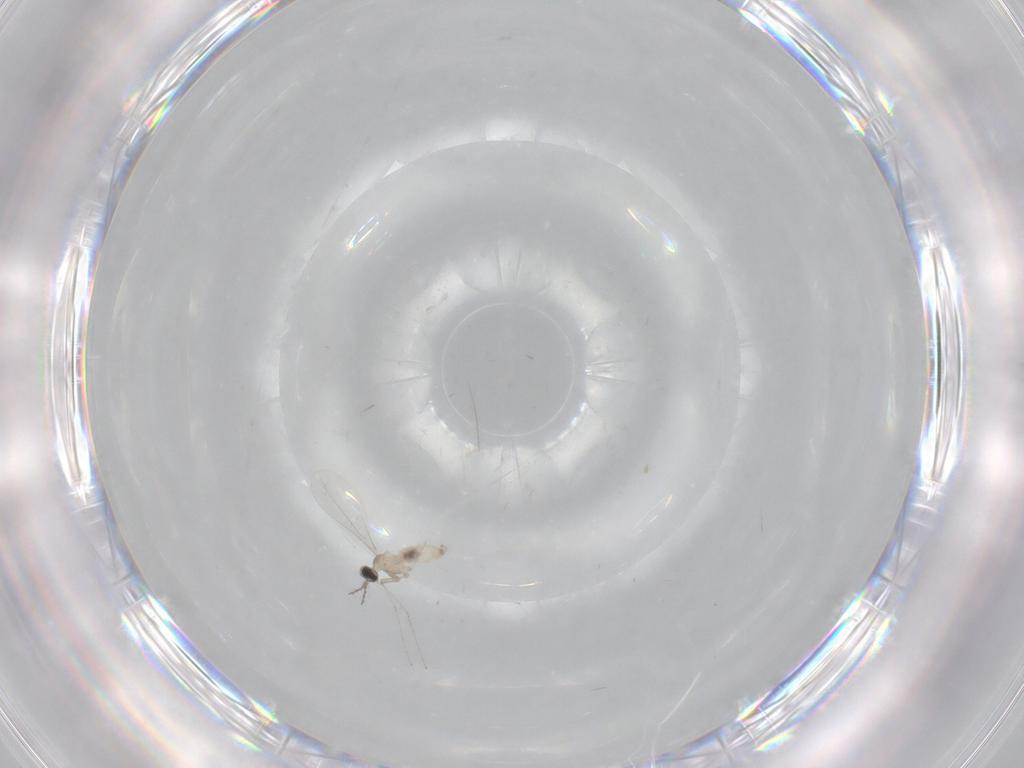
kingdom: Animalia
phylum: Arthropoda
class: Insecta
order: Diptera
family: Cecidomyiidae
